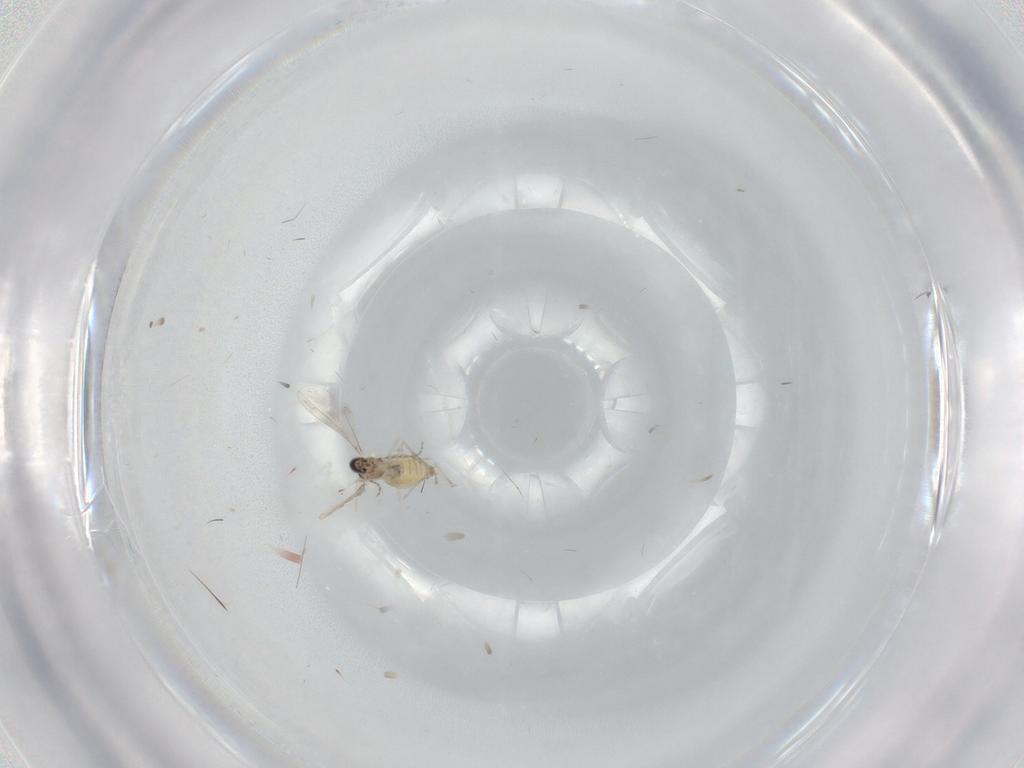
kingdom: Animalia
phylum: Arthropoda
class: Insecta
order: Diptera
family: Cecidomyiidae
